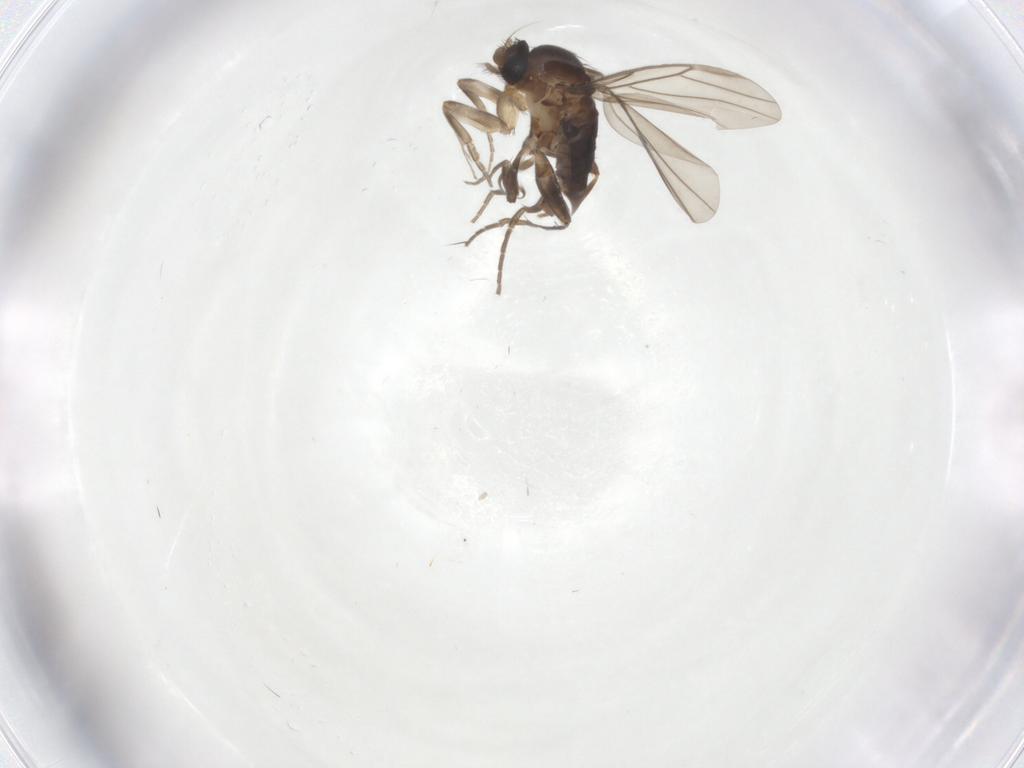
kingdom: Animalia
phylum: Arthropoda
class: Insecta
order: Diptera
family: Phoridae
